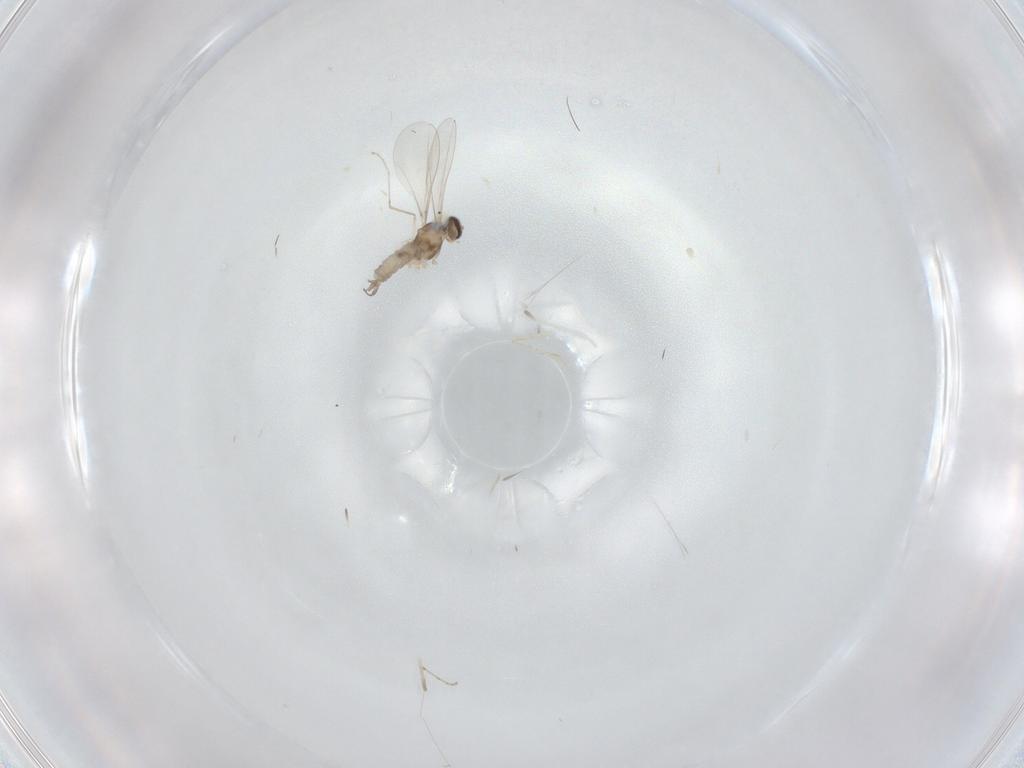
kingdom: Animalia
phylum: Arthropoda
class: Insecta
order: Diptera
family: Cecidomyiidae
